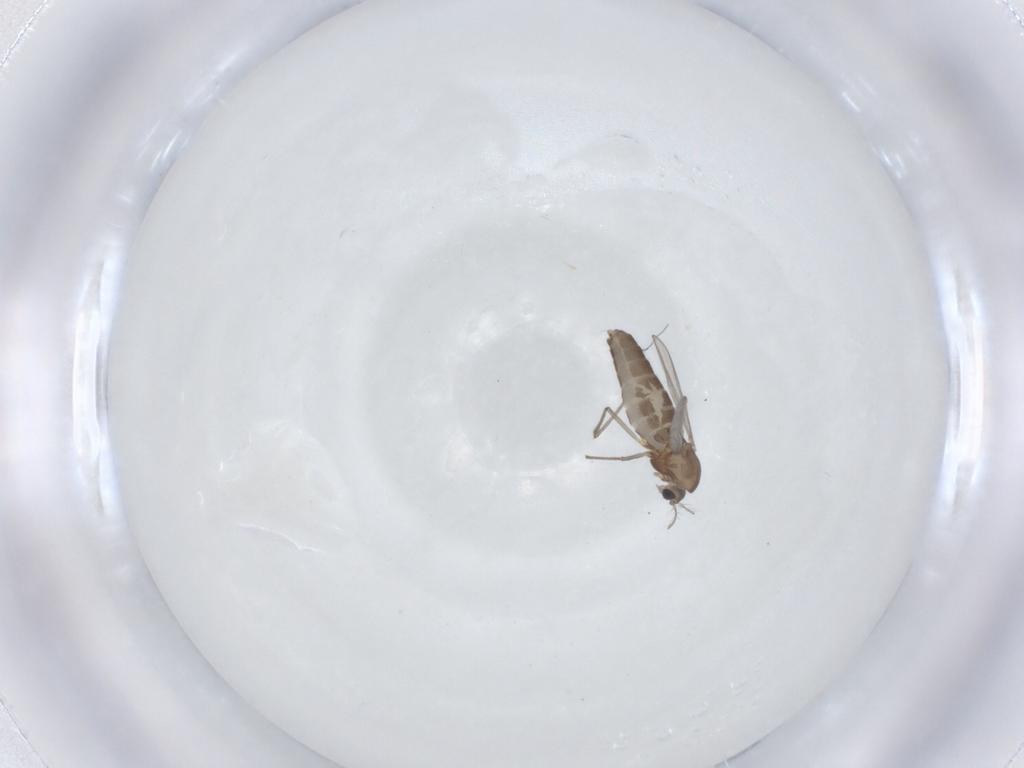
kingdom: Animalia
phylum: Arthropoda
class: Insecta
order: Diptera
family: Chironomidae
